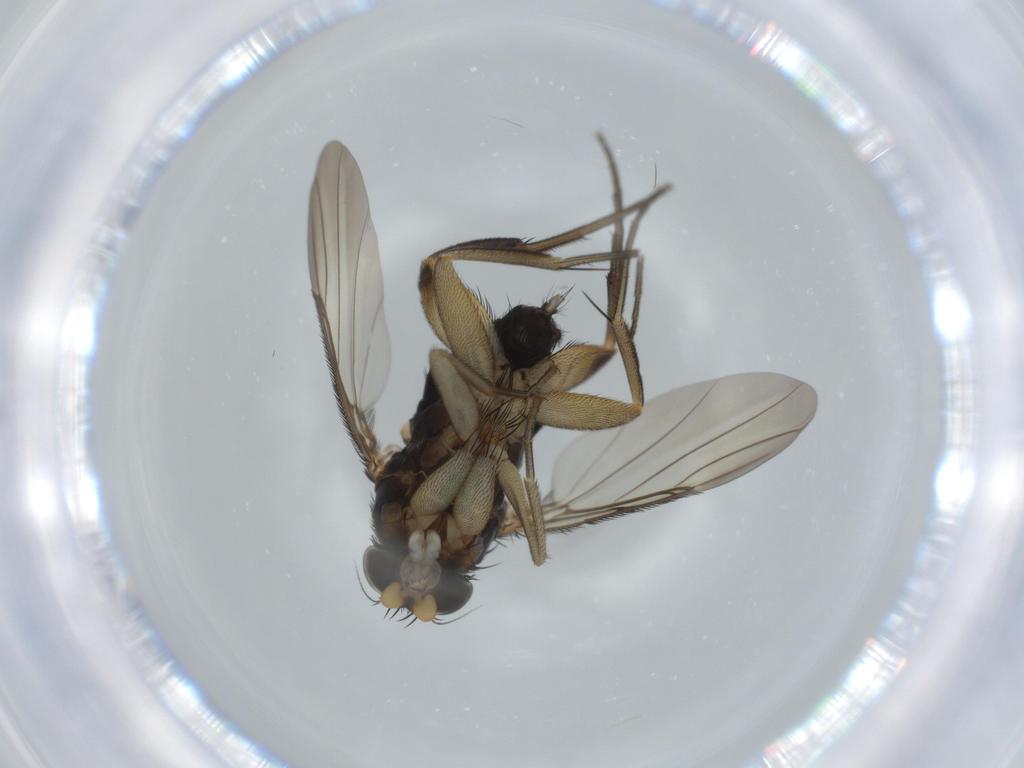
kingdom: Animalia
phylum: Arthropoda
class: Insecta
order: Diptera
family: Phoridae
